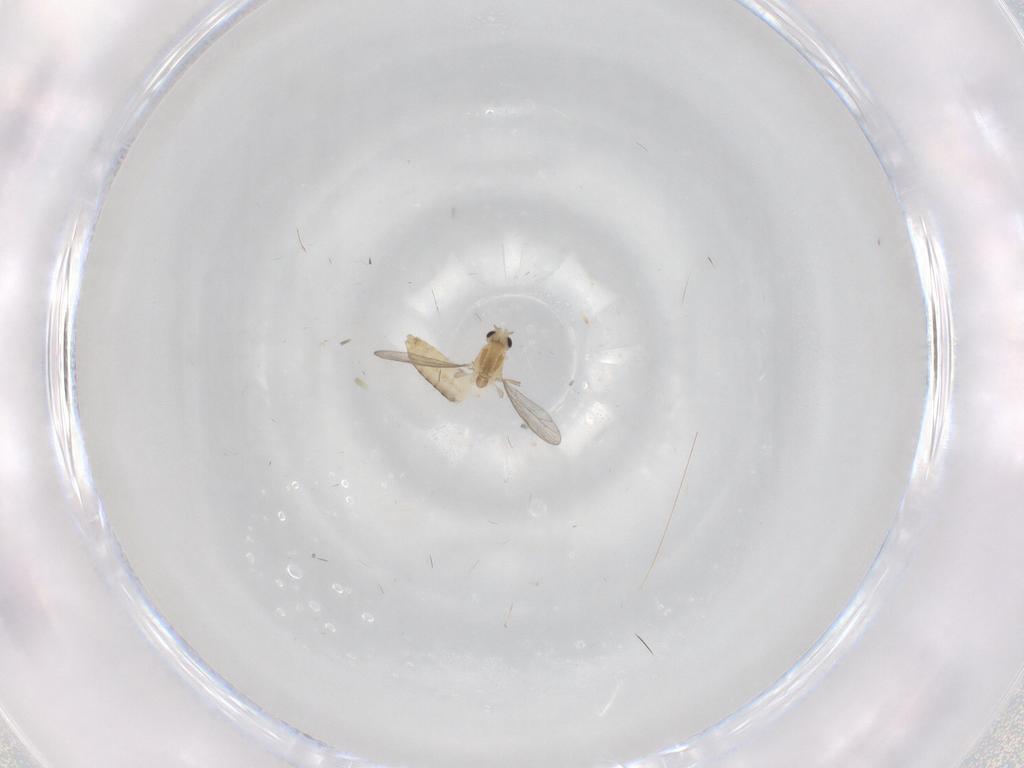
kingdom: Animalia
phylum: Arthropoda
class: Insecta
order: Diptera
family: Chironomidae
